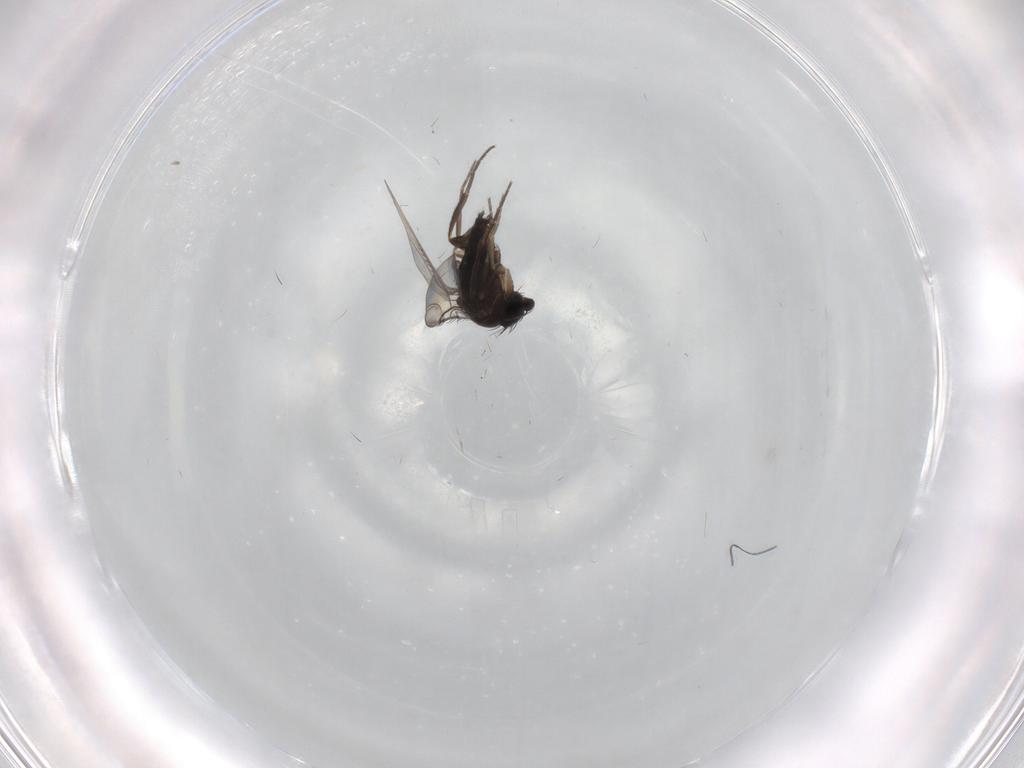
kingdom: Animalia
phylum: Arthropoda
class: Insecta
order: Diptera
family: Phoridae
